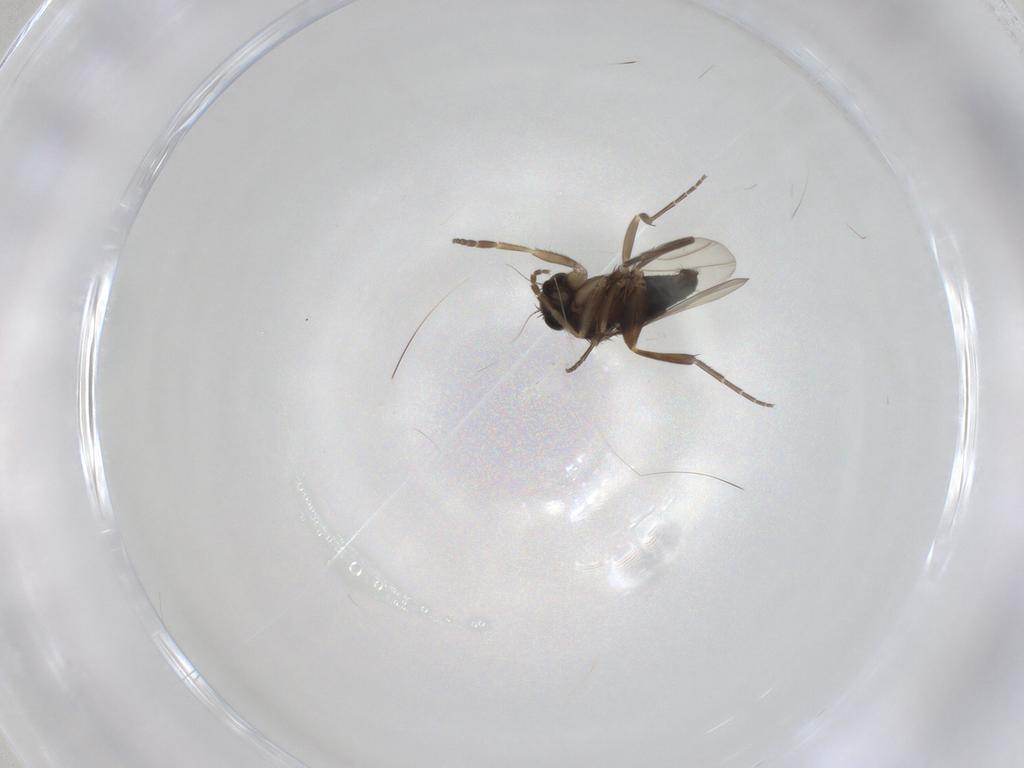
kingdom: Animalia
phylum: Arthropoda
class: Insecta
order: Diptera
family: Phoridae
